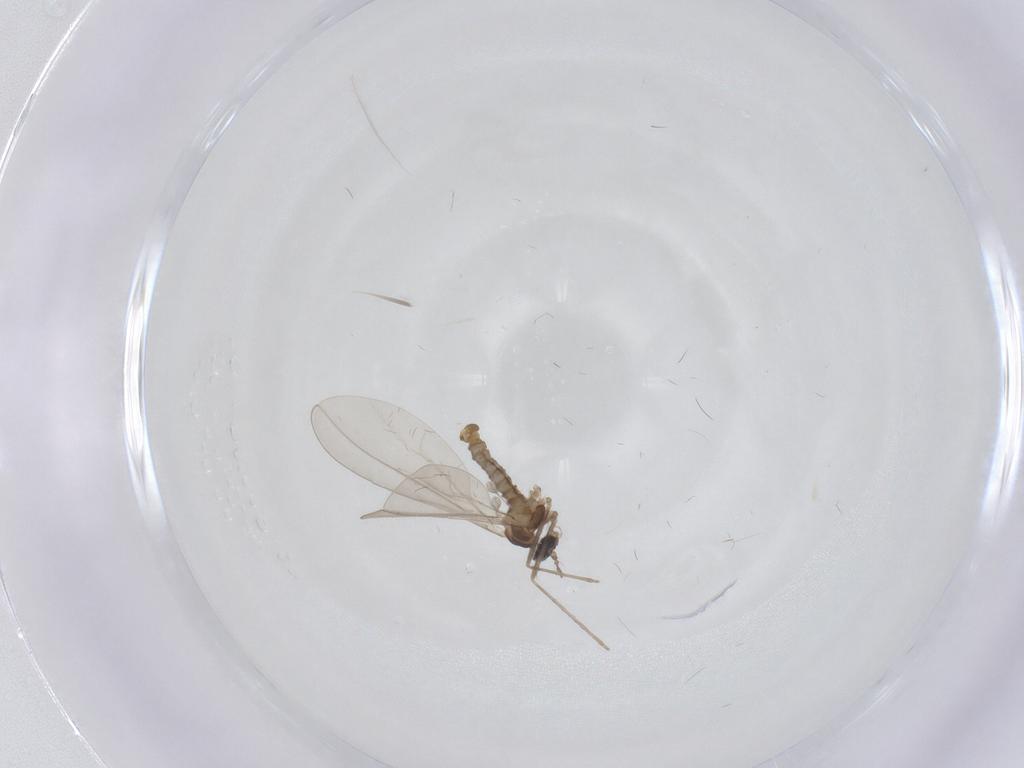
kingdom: Animalia
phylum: Arthropoda
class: Insecta
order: Diptera
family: Cecidomyiidae
